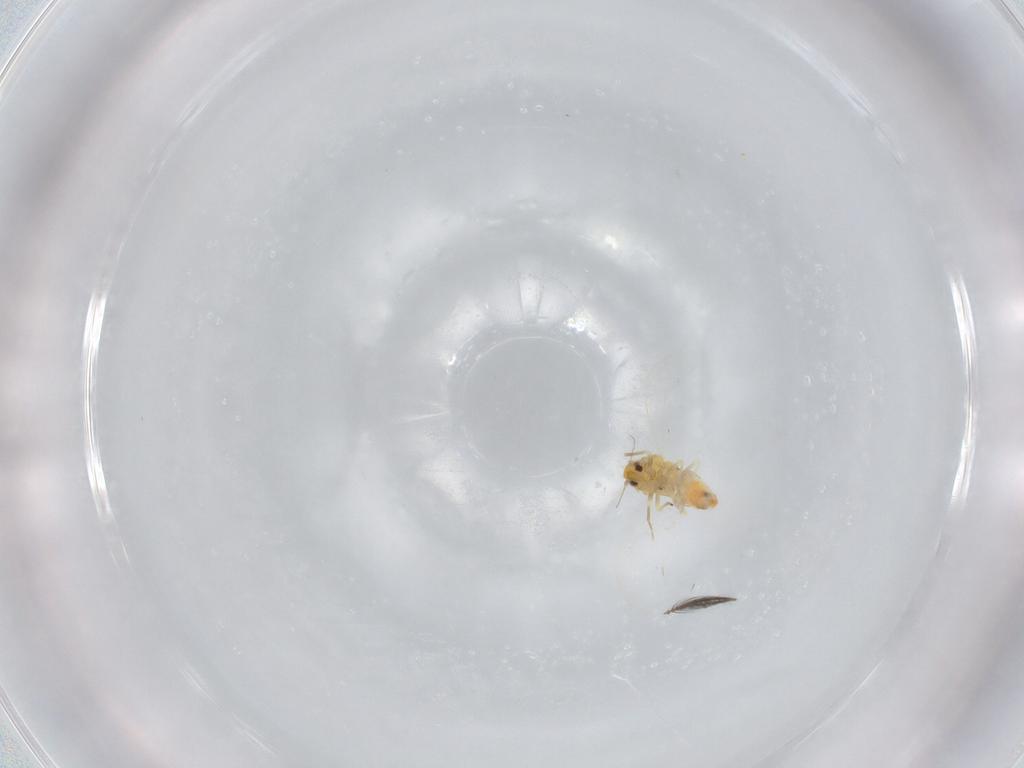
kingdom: Animalia
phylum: Arthropoda
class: Insecta
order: Hemiptera
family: Aleyrodidae
